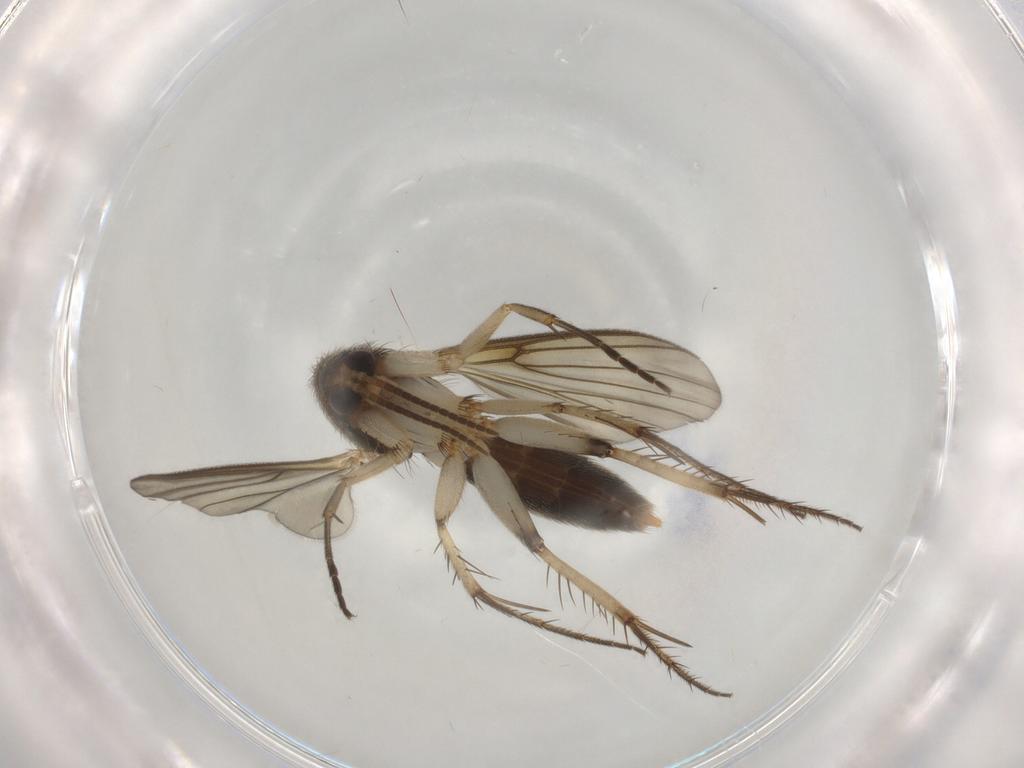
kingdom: Animalia
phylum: Arthropoda
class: Insecta
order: Diptera
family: Mycetophilidae
